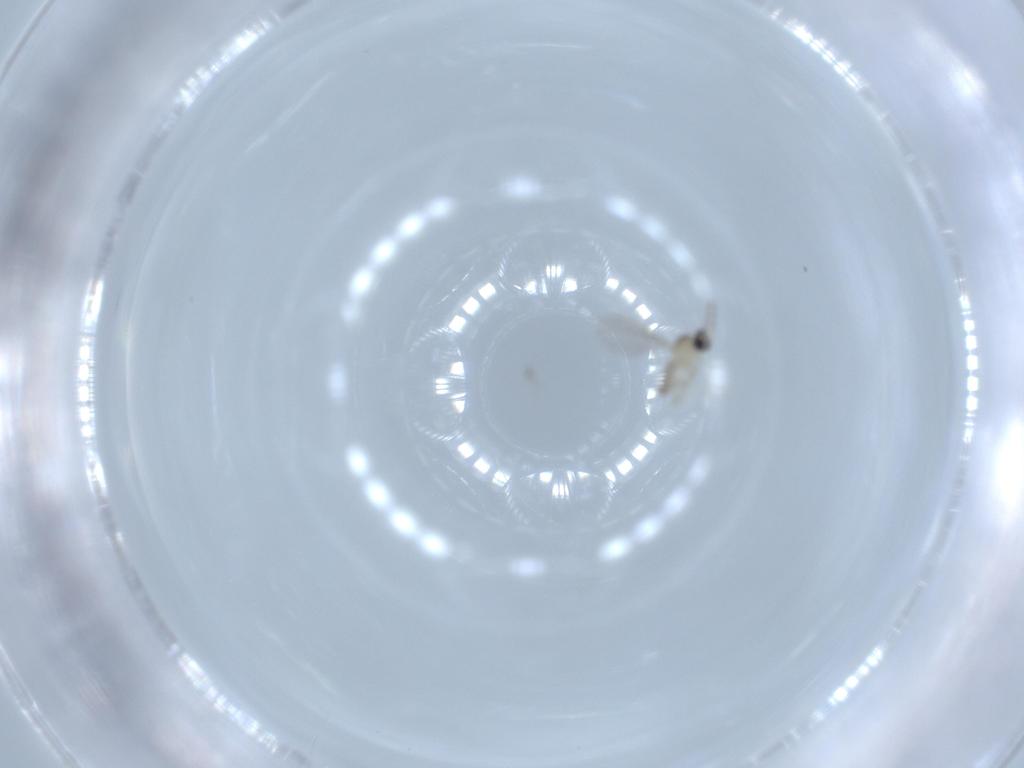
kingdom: Animalia
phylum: Arthropoda
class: Insecta
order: Diptera
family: Cecidomyiidae
